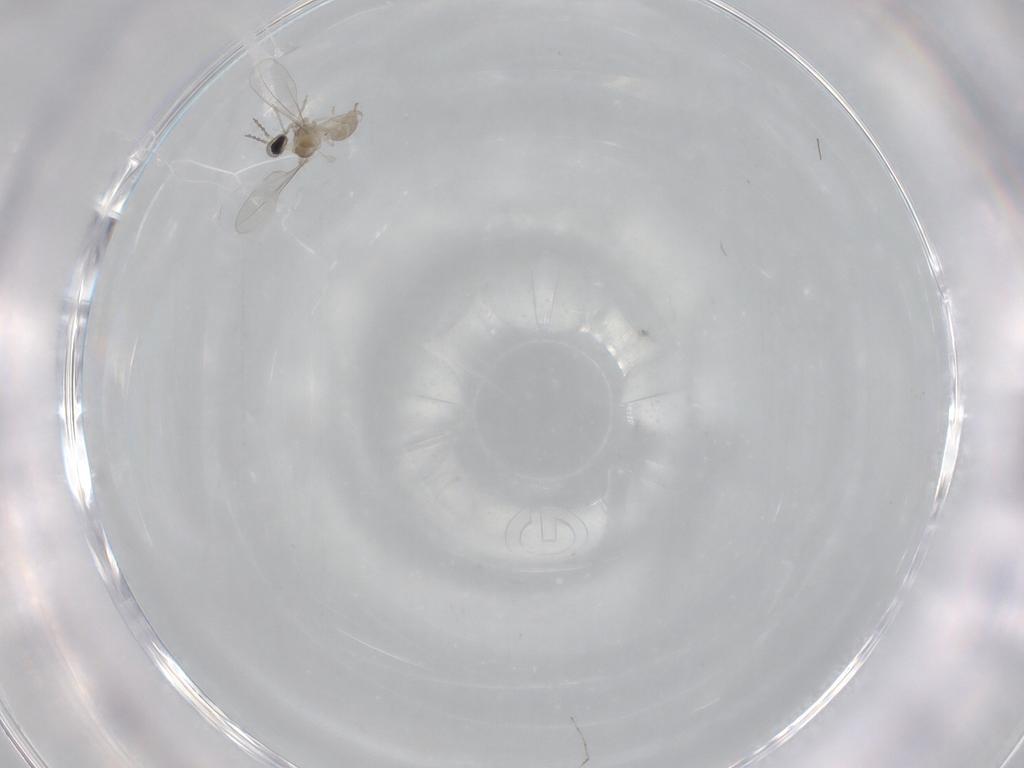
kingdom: Animalia
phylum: Arthropoda
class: Insecta
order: Diptera
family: Cecidomyiidae
